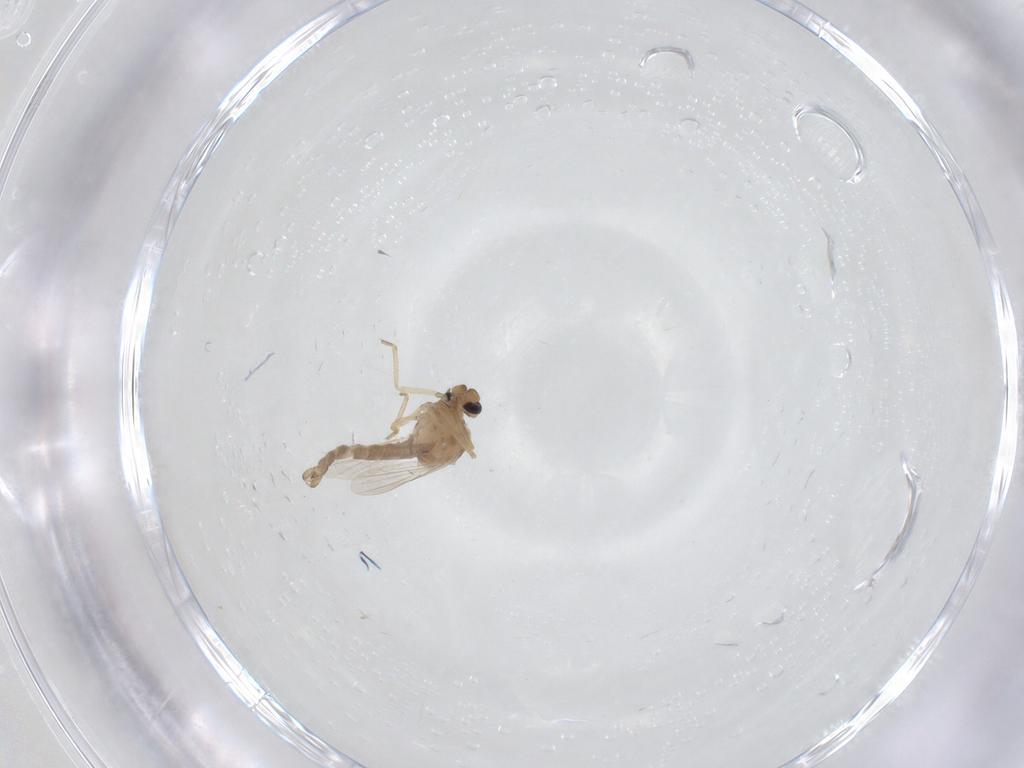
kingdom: Animalia
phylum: Arthropoda
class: Insecta
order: Diptera
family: Ceratopogonidae
